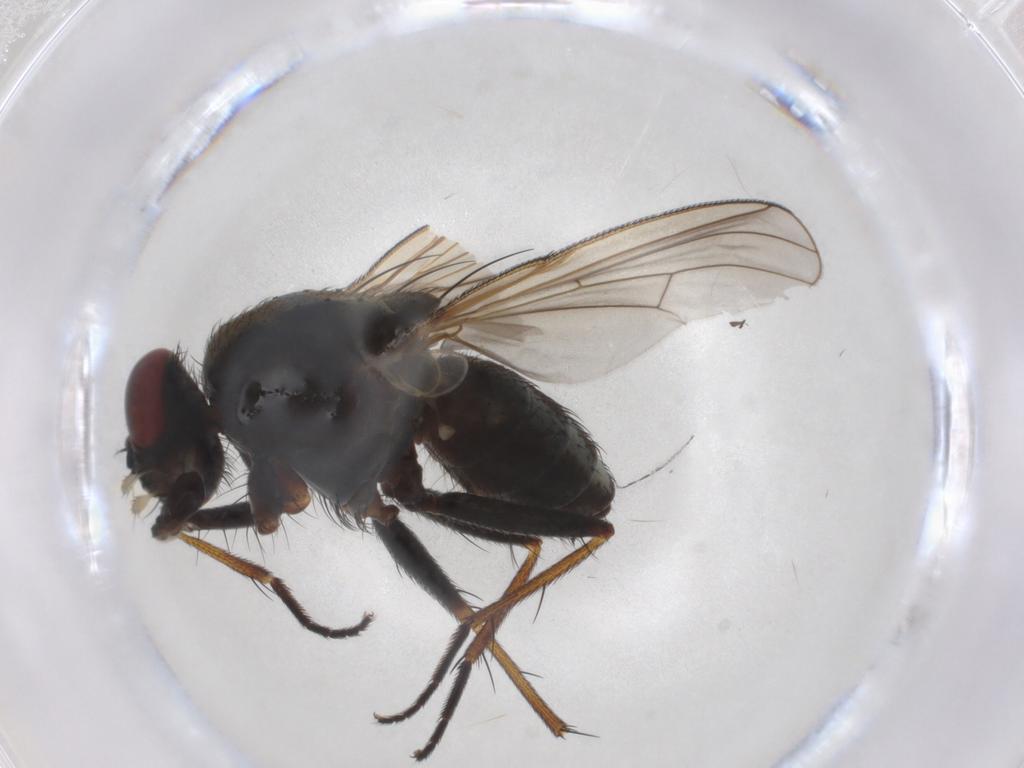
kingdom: Animalia
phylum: Arthropoda
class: Insecta
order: Diptera
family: Muscidae
